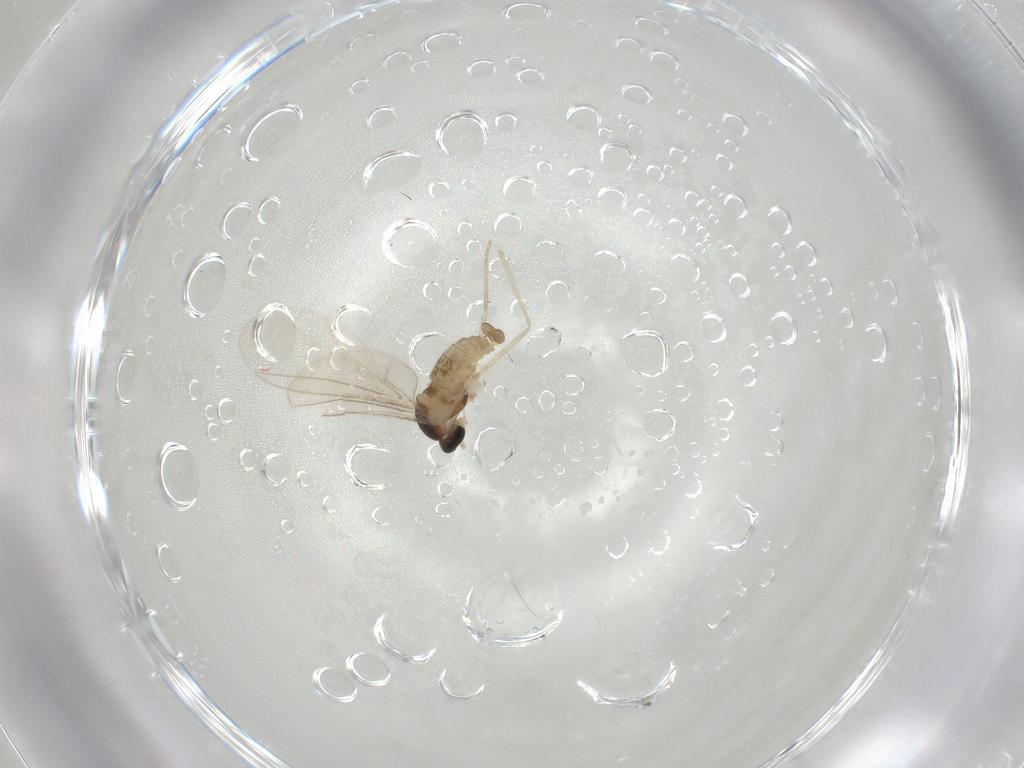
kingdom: Animalia
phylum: Arthropoda
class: Insecta
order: Diptera
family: Cecidomyiidae
